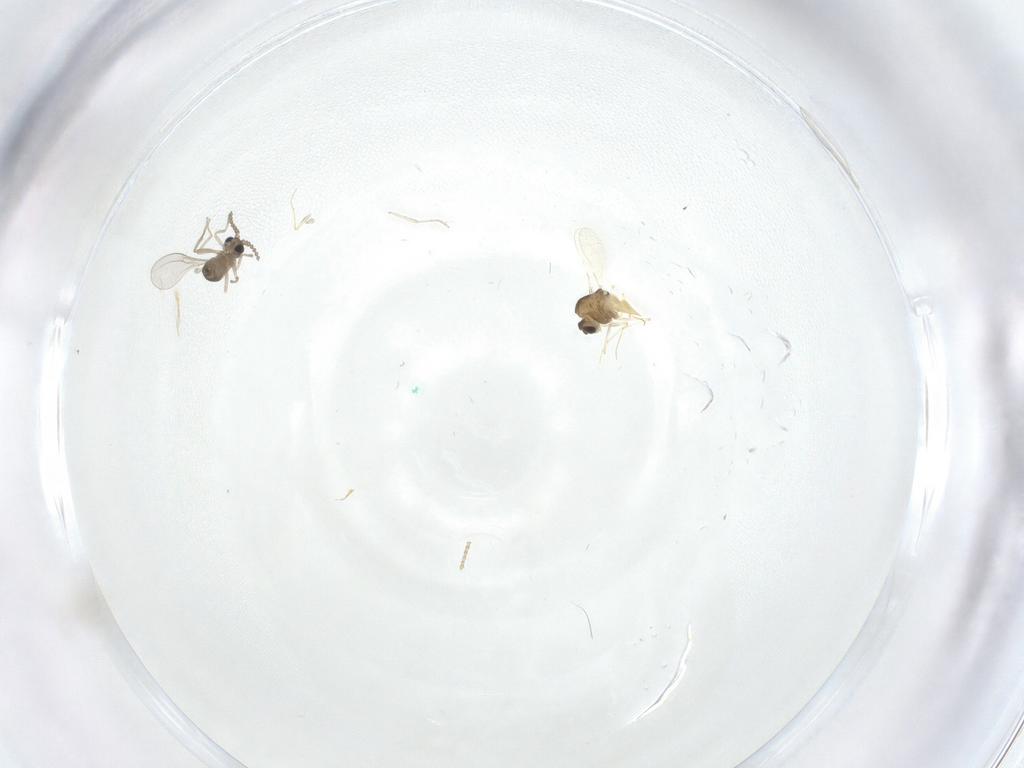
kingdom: Animalia
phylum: Arthropoda
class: Insecta
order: Diptera
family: Chironomidae
